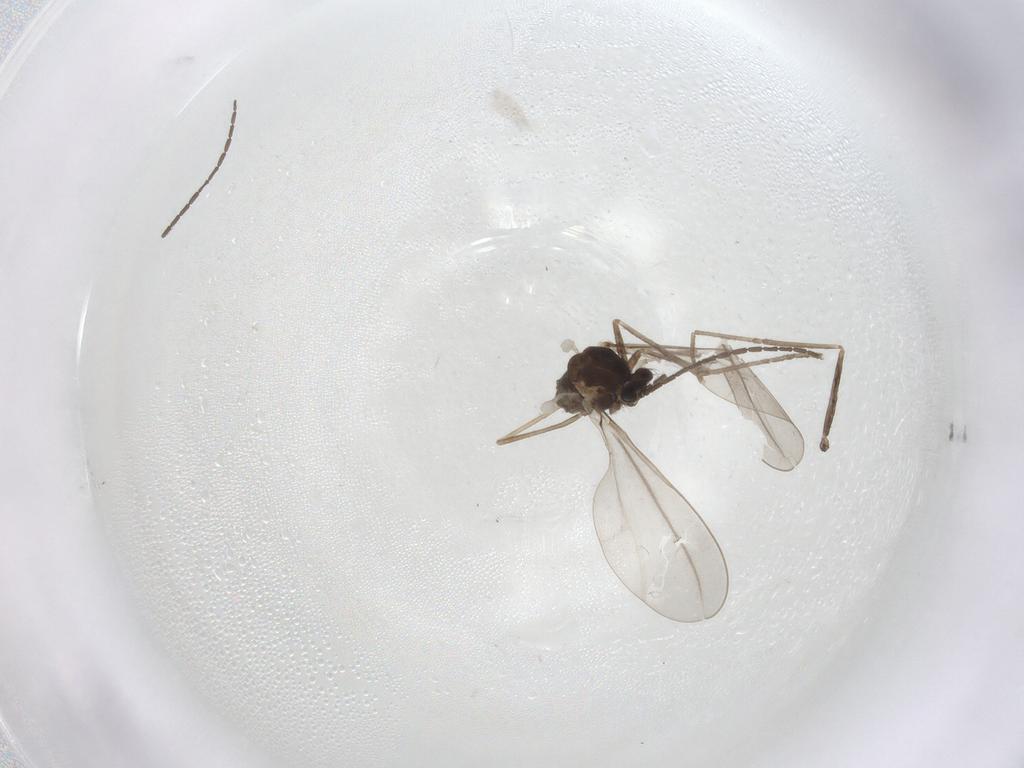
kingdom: Animalia
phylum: Arthropoda
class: Insecta
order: Diptera
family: Cecidomyiidae
